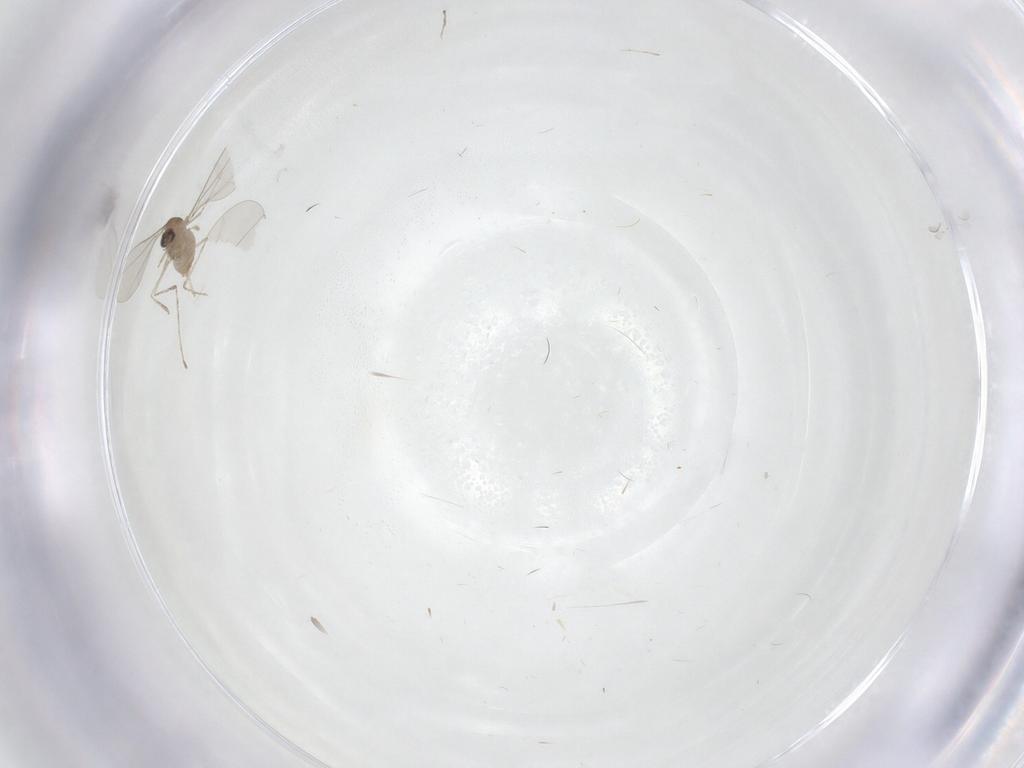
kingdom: Animalia
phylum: Arthropoda
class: Insecta
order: Diptera
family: Cecidomyiidae
